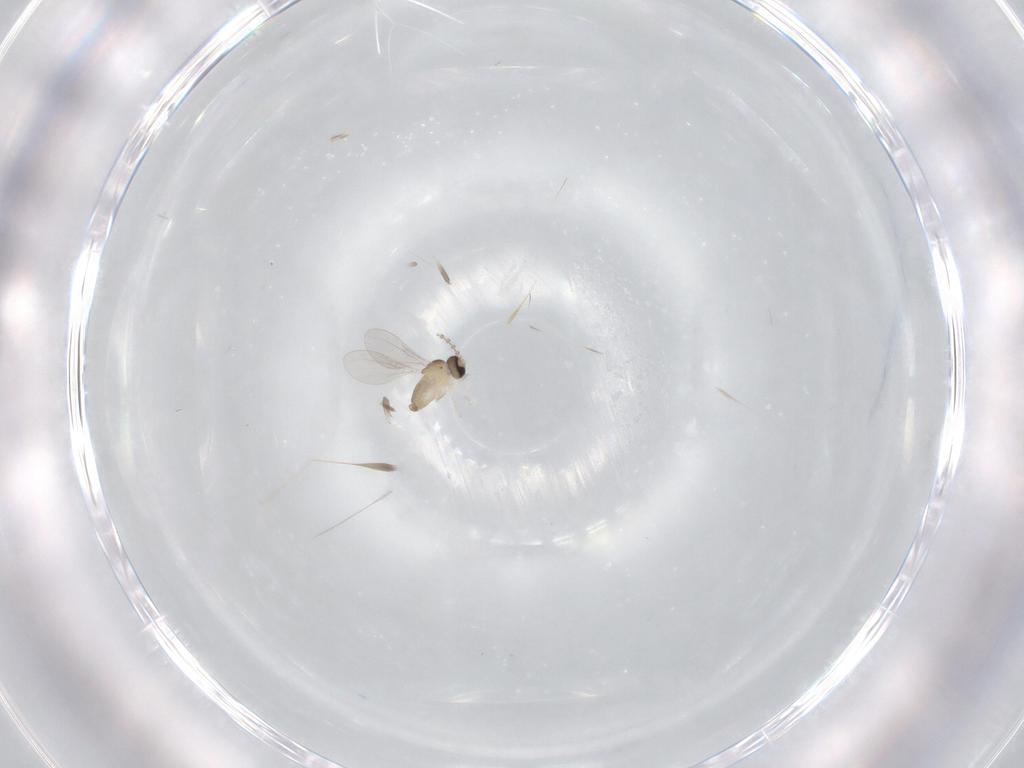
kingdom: Animalia
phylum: Arthropoda
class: Insecta
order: Diptera
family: Cecidomyiidae
